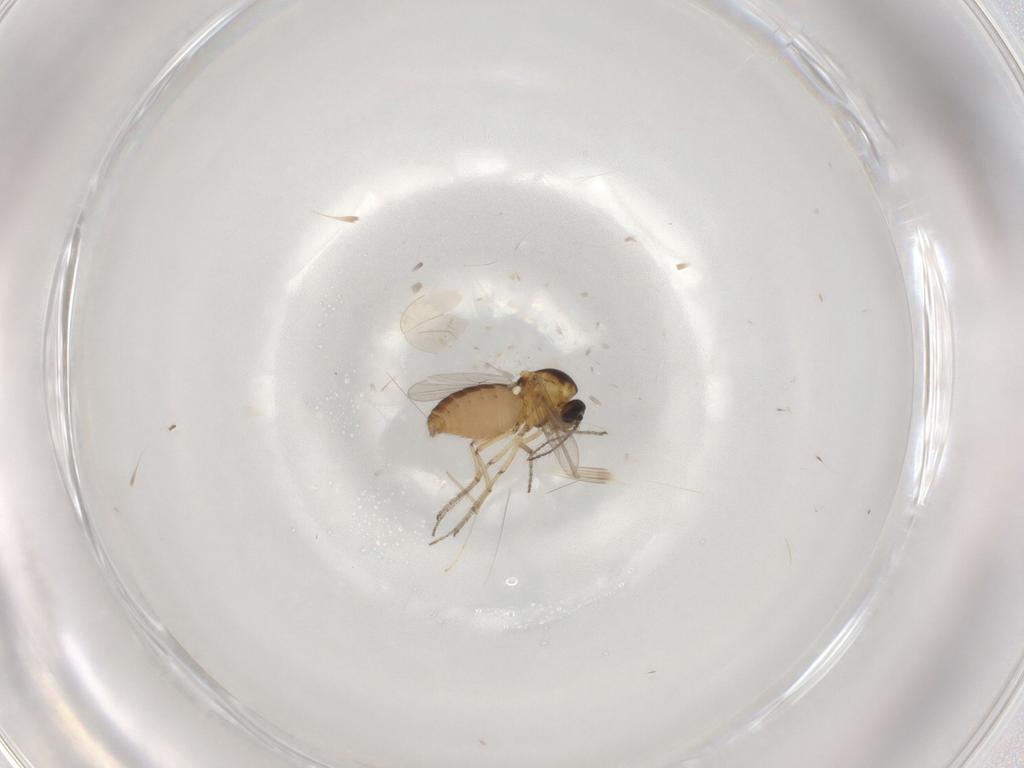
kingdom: Animalia
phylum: Arthropoda
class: Insecta
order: Diptera
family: Ceratopogonidae
